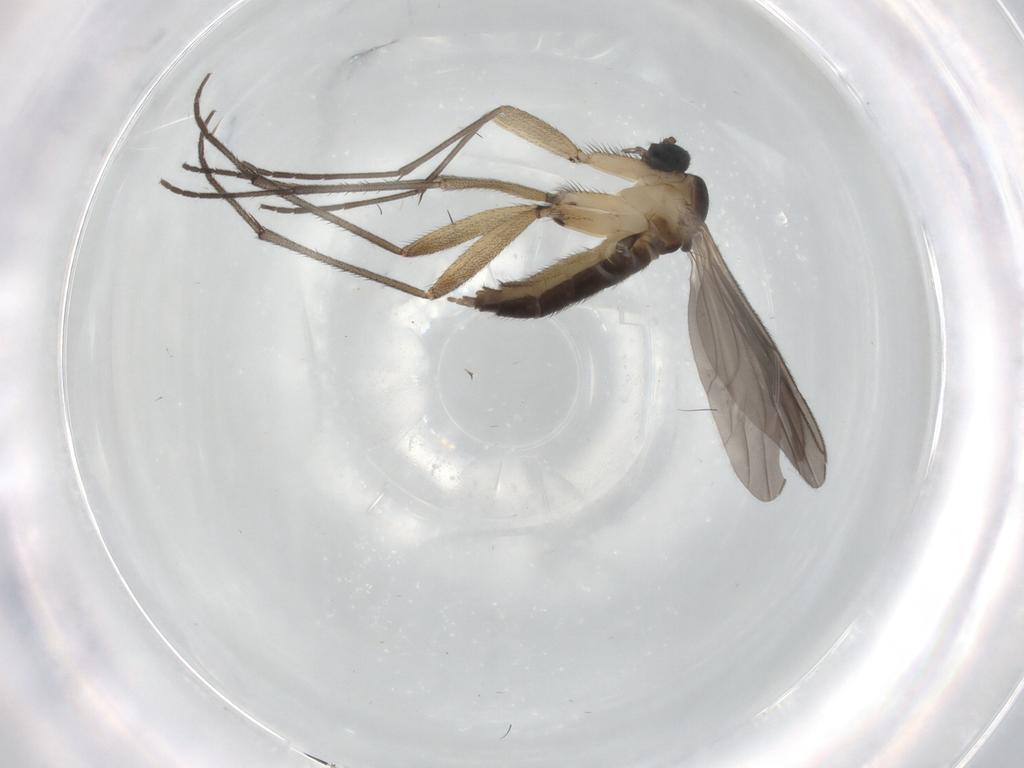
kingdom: Animalia
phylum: Arthropoda
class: Insecta
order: Diptera
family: Sciaridae
